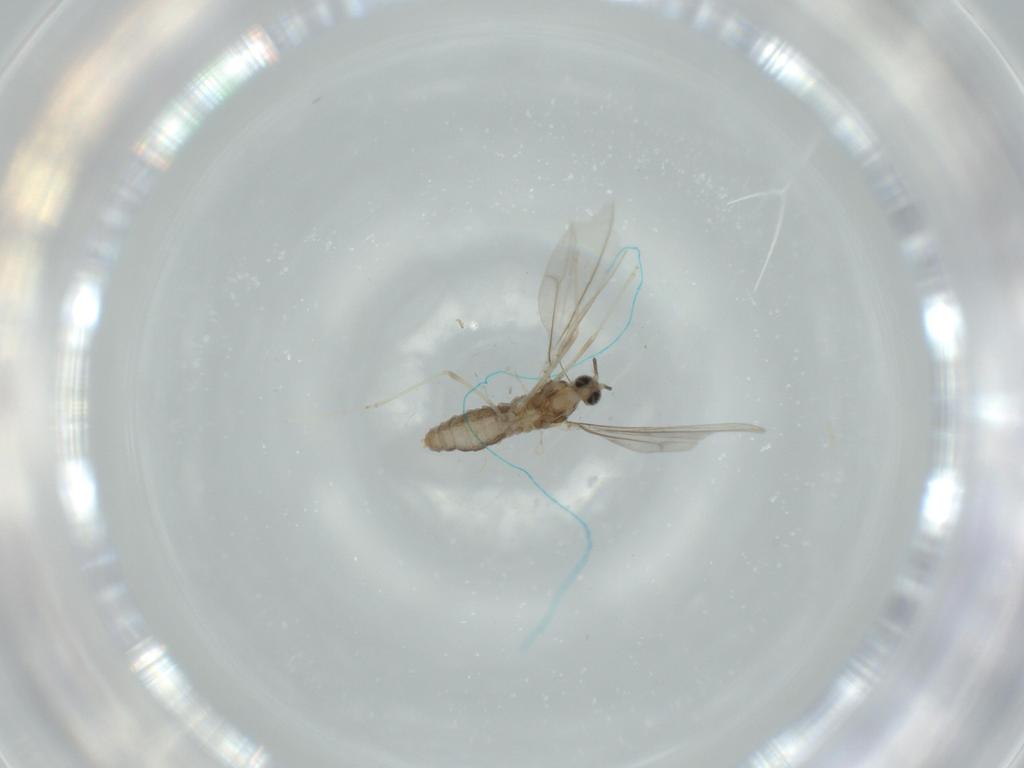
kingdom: Animalia
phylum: Arthropoda
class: Insecta
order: Diptera
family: Cecidomyiidae
